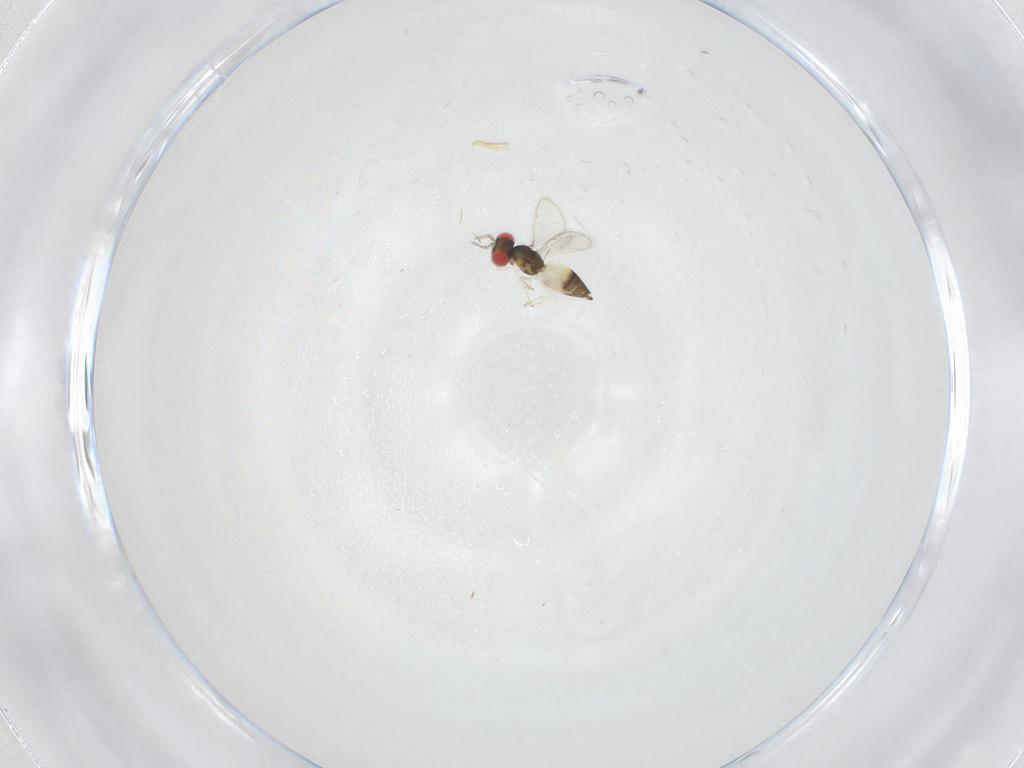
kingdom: Animalia
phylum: Arthropoda
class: Insecta
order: Hymenoptera
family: Eulophidae
